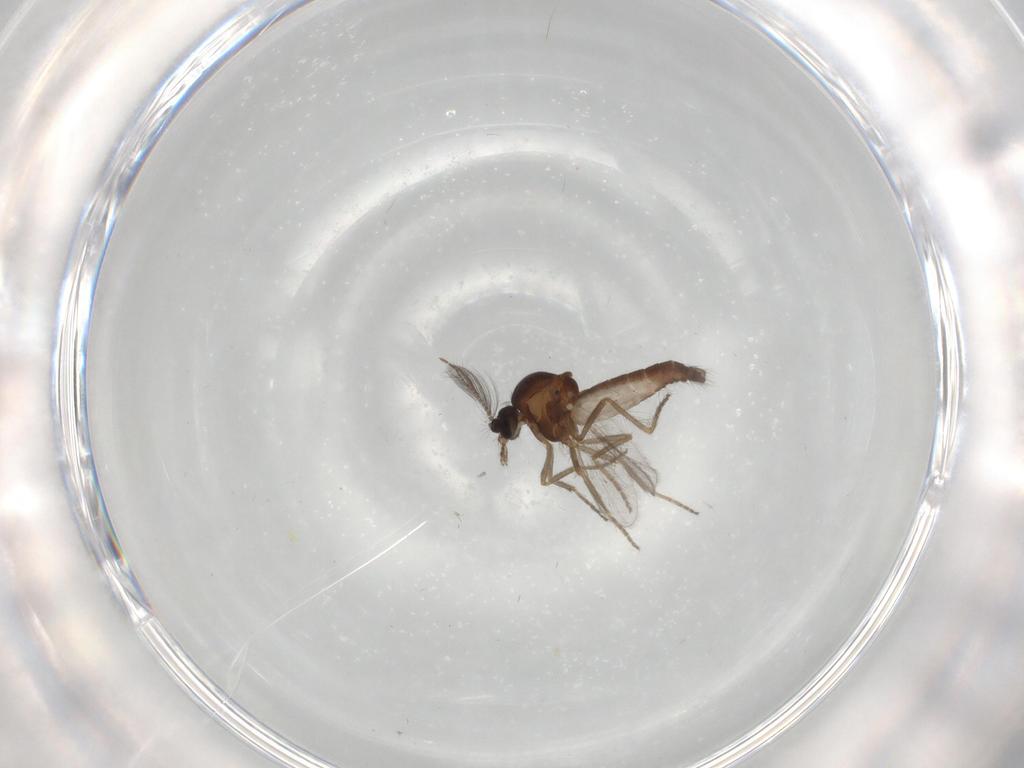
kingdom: Animalia
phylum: Arthropoda
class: Insecta
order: Diptera
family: Ceratopogonidae
